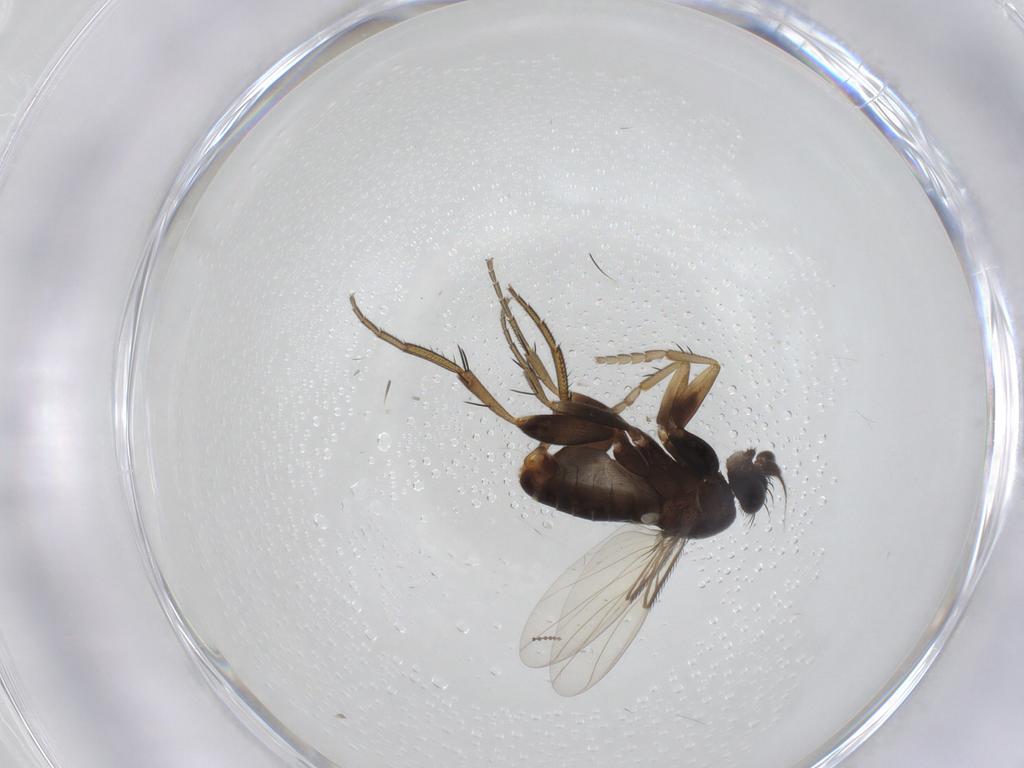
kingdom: Animalia
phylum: Arthropoda
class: Insecta
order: Diptera
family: Phoridae
